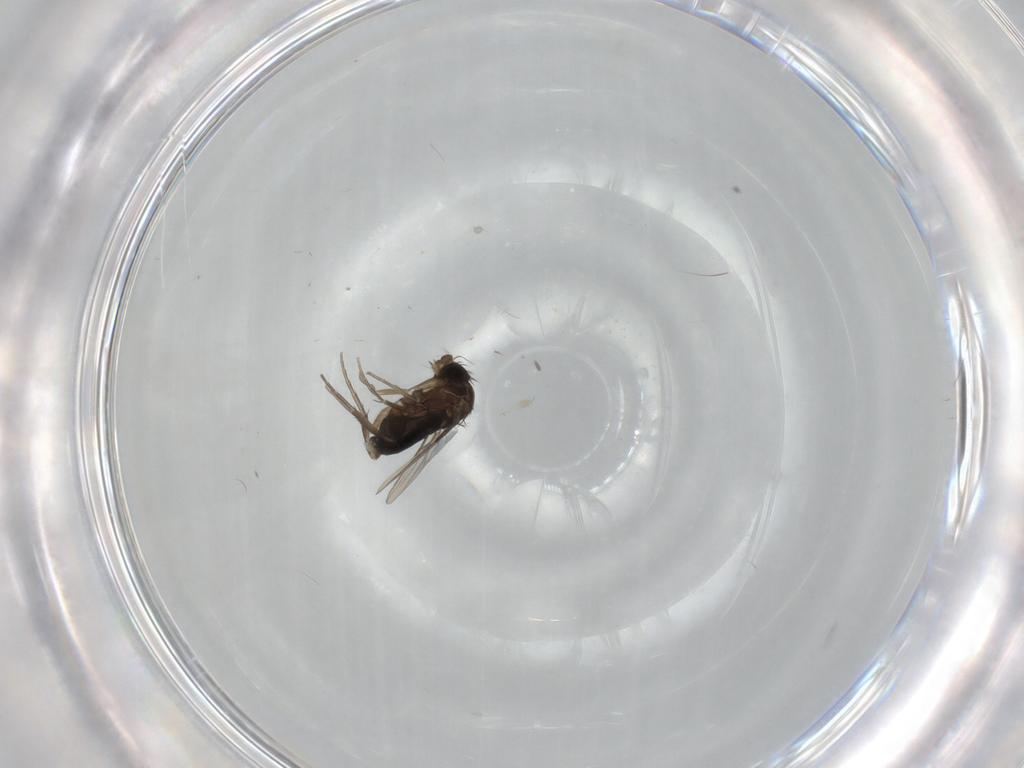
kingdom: Animalia
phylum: Arthropoda
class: Insecta
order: Diptera
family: Phoridae
